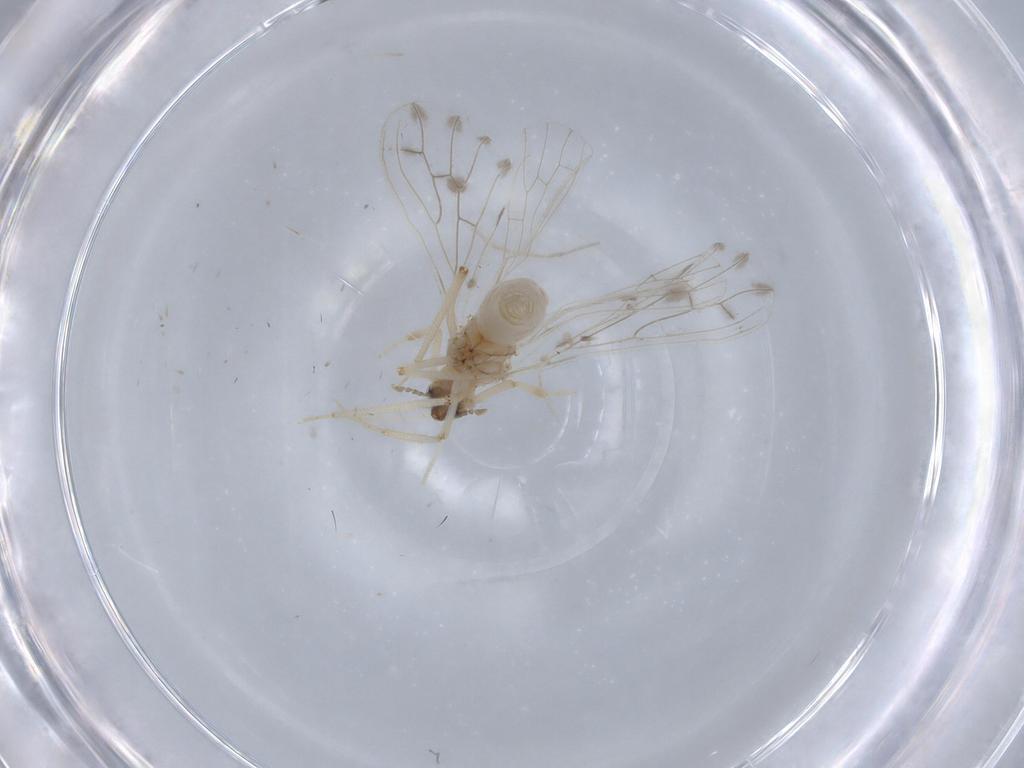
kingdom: Animalia
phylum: Arthropoda
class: Insecta
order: Neuroptera
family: Coniopterygidae
